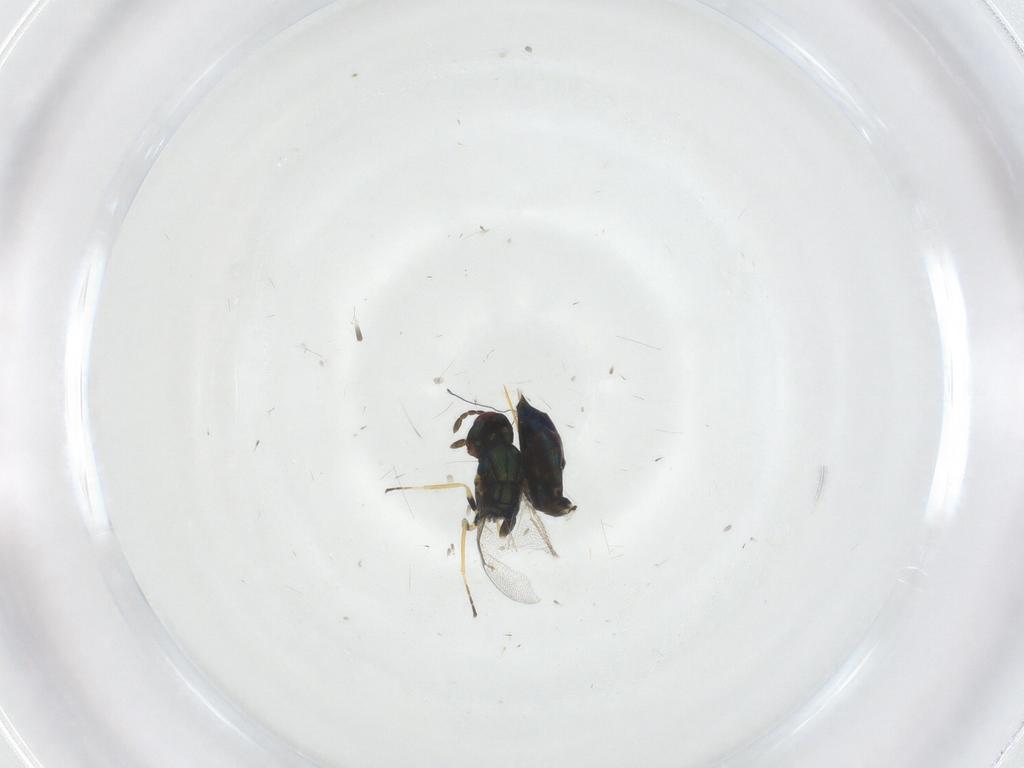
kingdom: Animalia
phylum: Arthropoda
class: Insecta
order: Hymenoptera
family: Eulophidae
